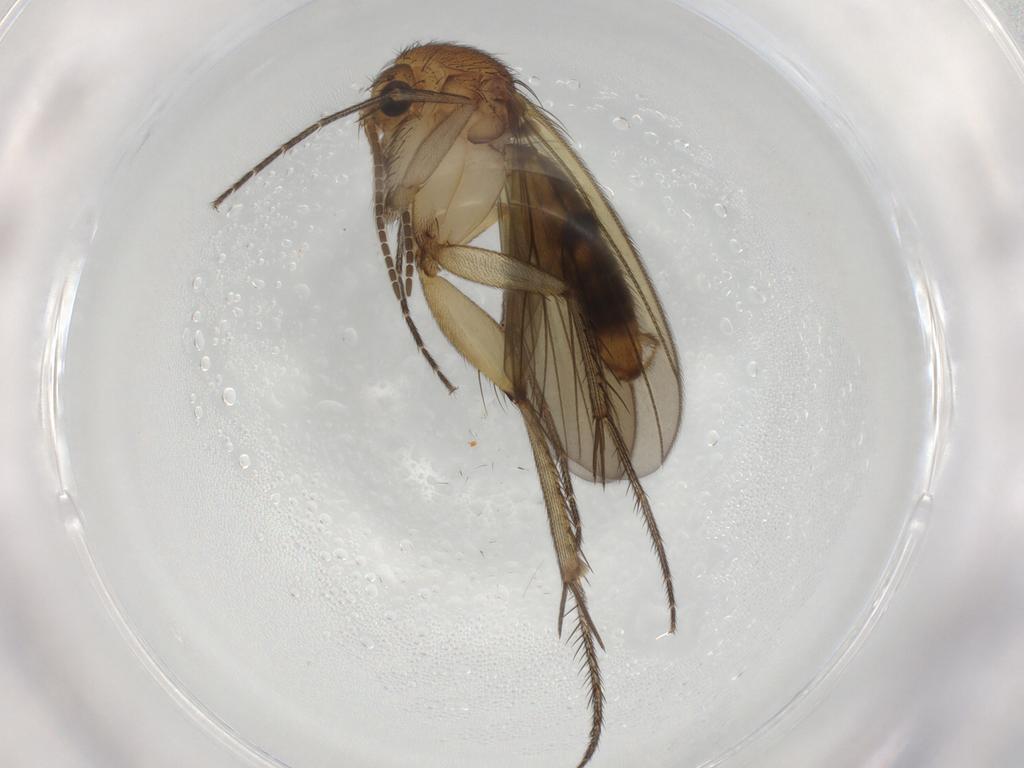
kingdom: Animalia
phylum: Arthropoda
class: Insecta
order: Diptera
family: Mycetophilidae
